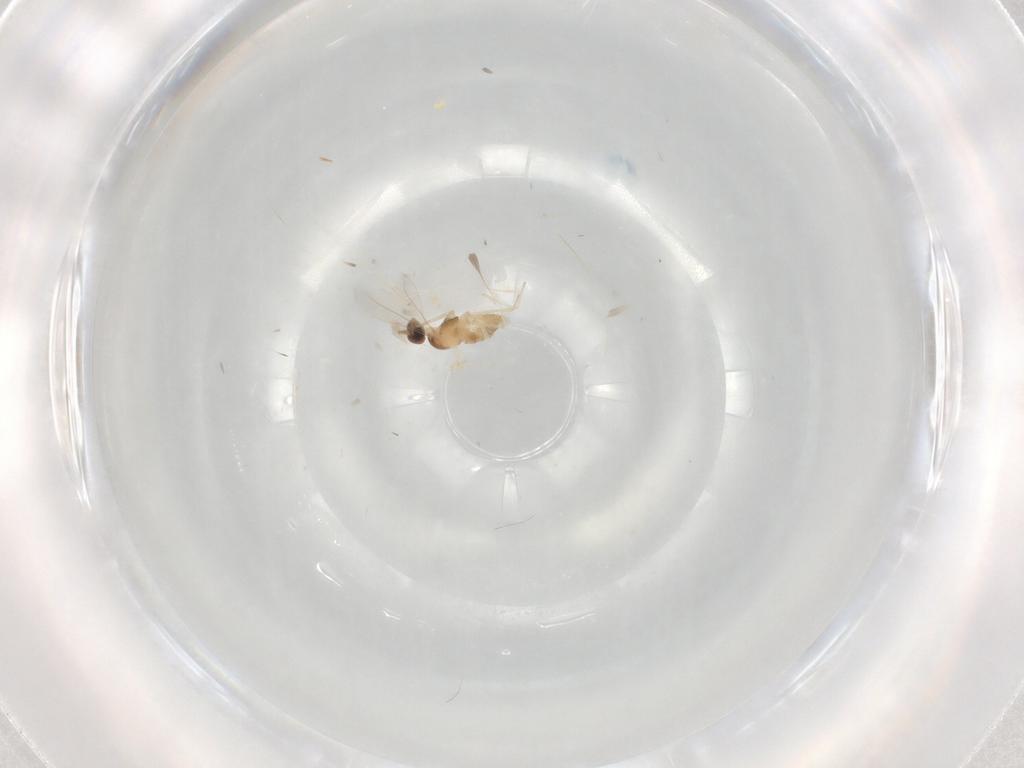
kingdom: Animalia
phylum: Arthropoda
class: Insecta
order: Diptera
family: Cecidomyiidae
